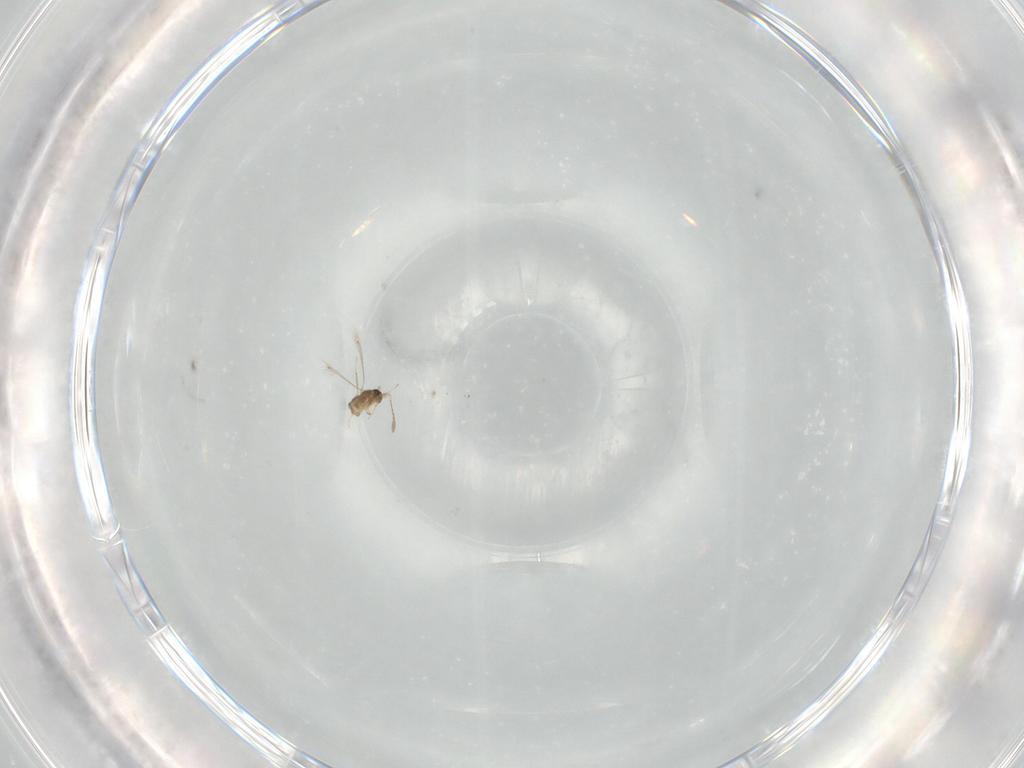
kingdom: Animalia
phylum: Arthropoda
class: Insecta
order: Hymenoptera
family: Mymaridae
